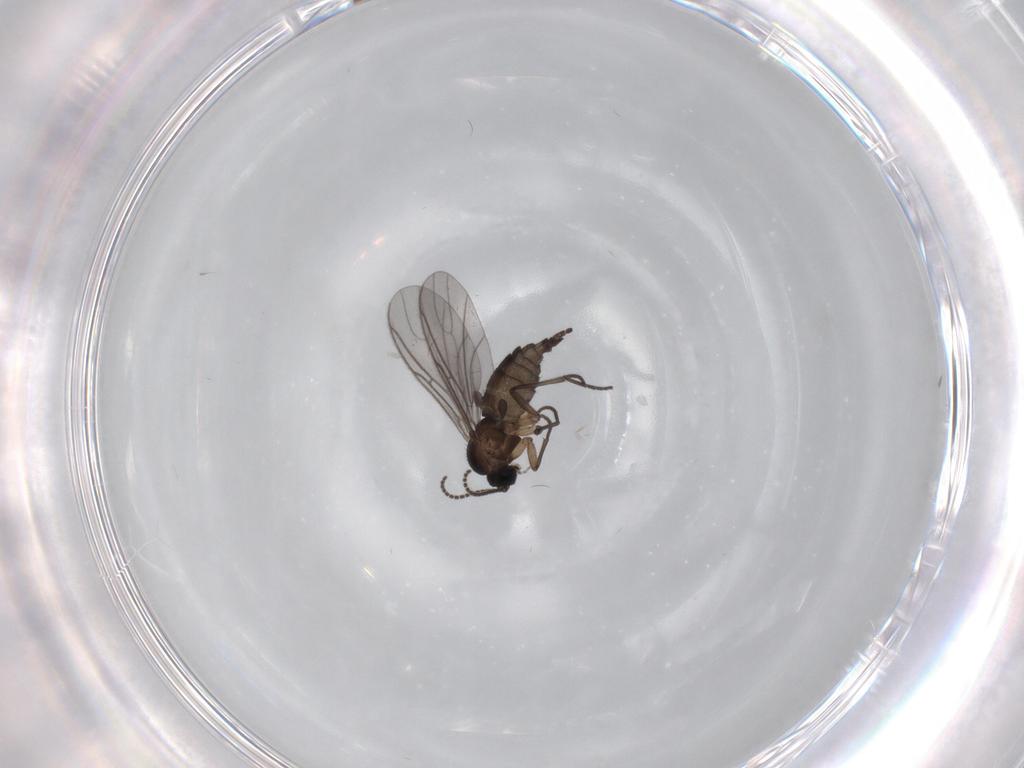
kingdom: Animalia
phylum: Arthropoda
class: Insecta
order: Diptera
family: Sciaridae
